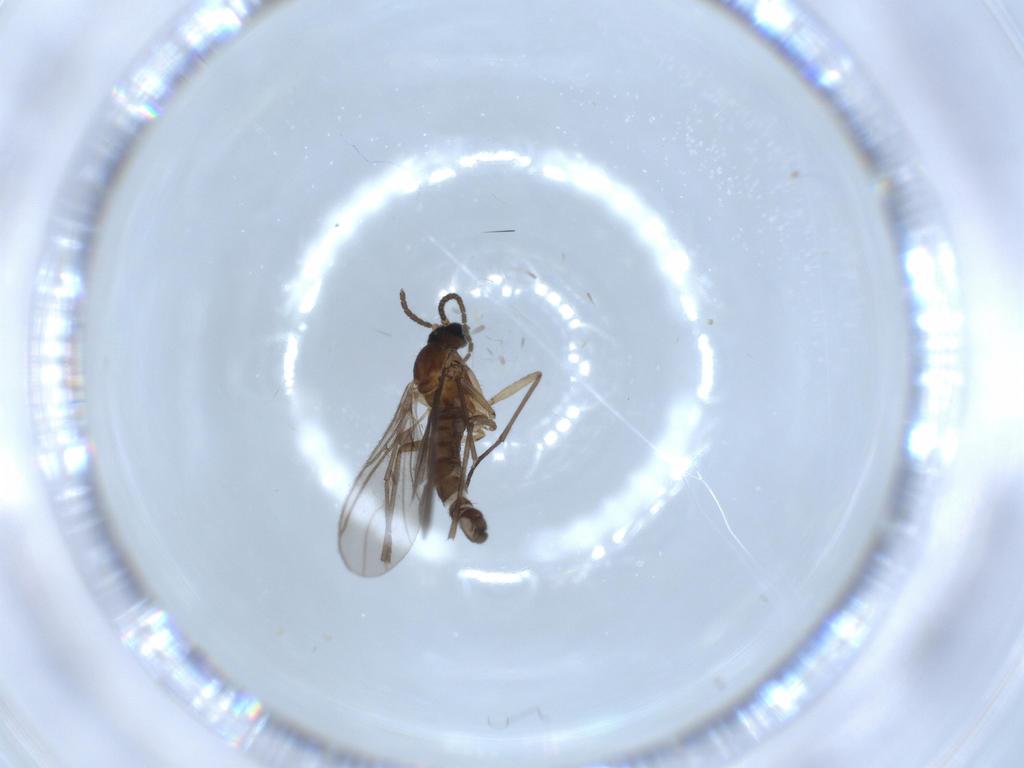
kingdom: Animalia
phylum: Arthropoda
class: Insecta
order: Diptera
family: Sciaridae
